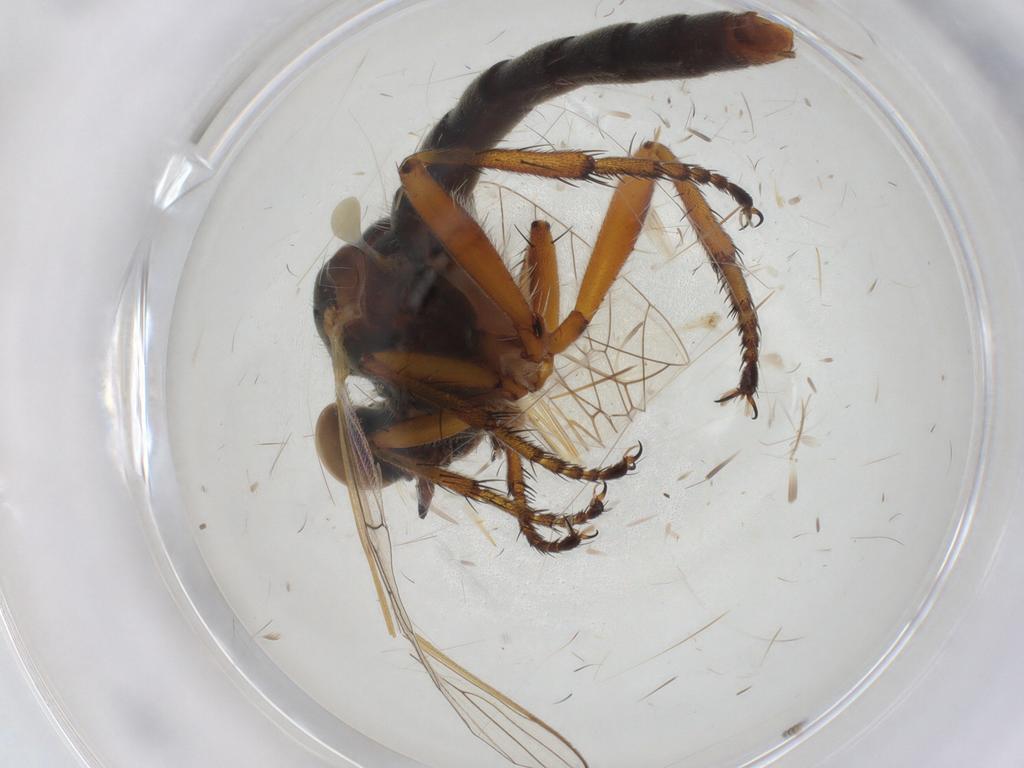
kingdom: Animalia
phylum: Arthropoda
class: Insecta
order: Diptera
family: Asilidae
